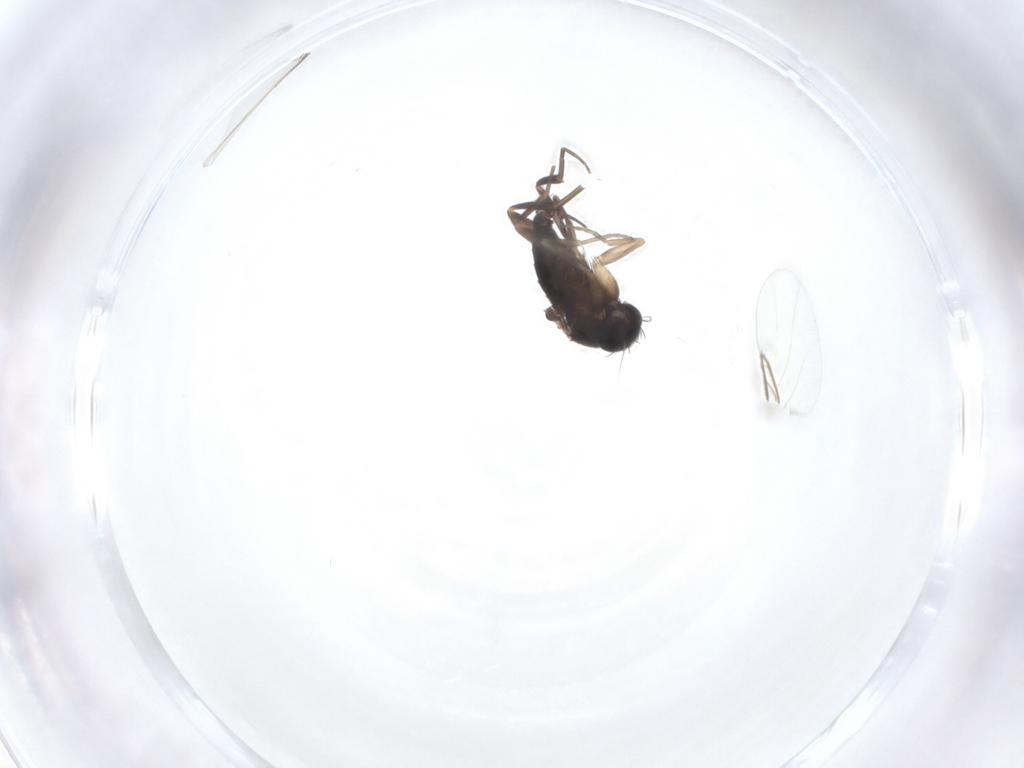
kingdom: Animalia
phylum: Arthropoda
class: Insecta
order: Diptera
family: Phoridae
